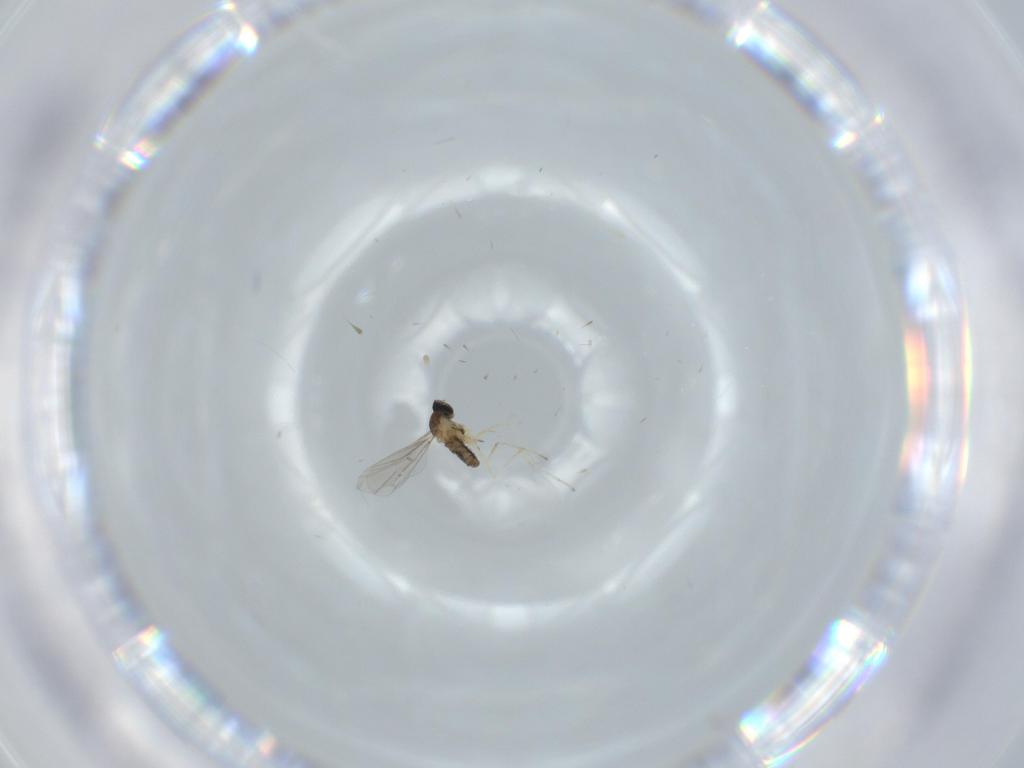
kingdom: Animalia
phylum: Arthropoda
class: Insecta
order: Diptera
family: Cecidomyiidae
